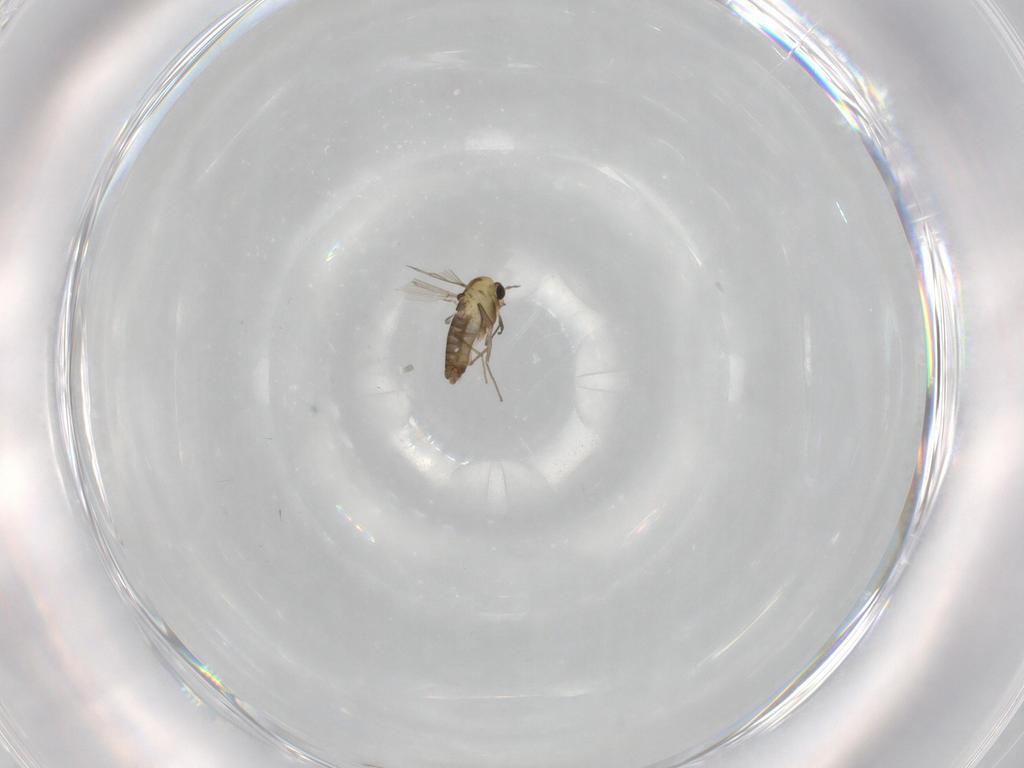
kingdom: Animalia
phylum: Arthropoda
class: Insecta
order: Diptera
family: Chironomidae
